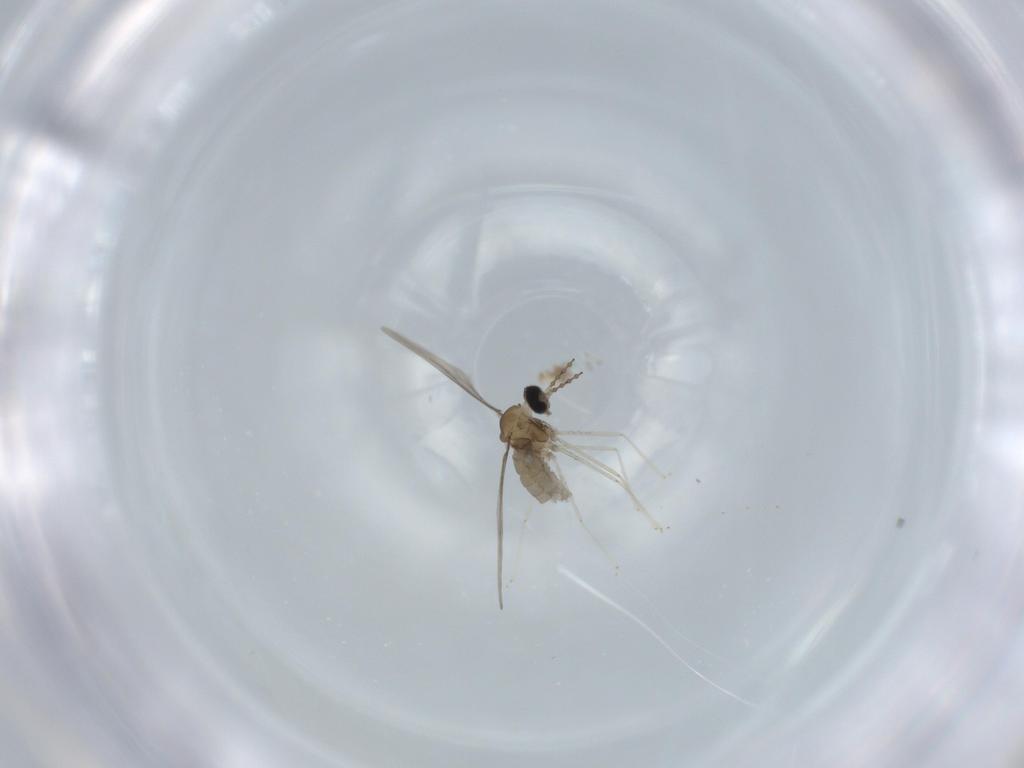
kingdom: Animalia
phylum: Arthropoda
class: Insecta
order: Diptera
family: Cecidomyiidae
